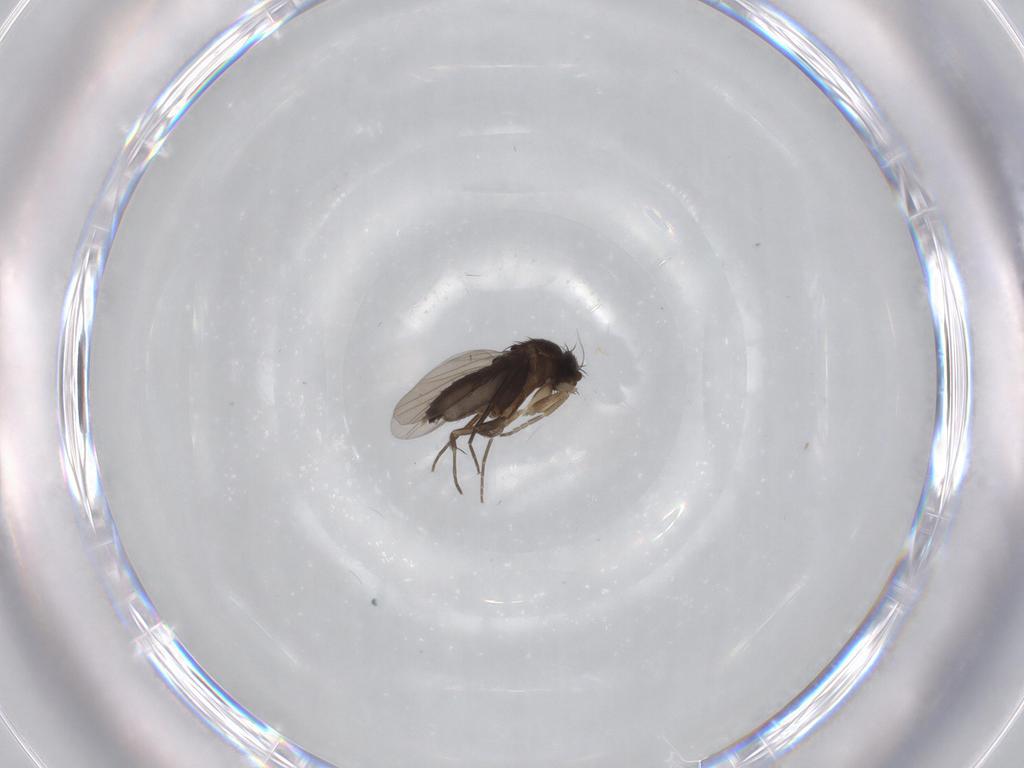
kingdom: Animalia
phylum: Arthropoda
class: Insecta
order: Diptera
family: Phoridae
